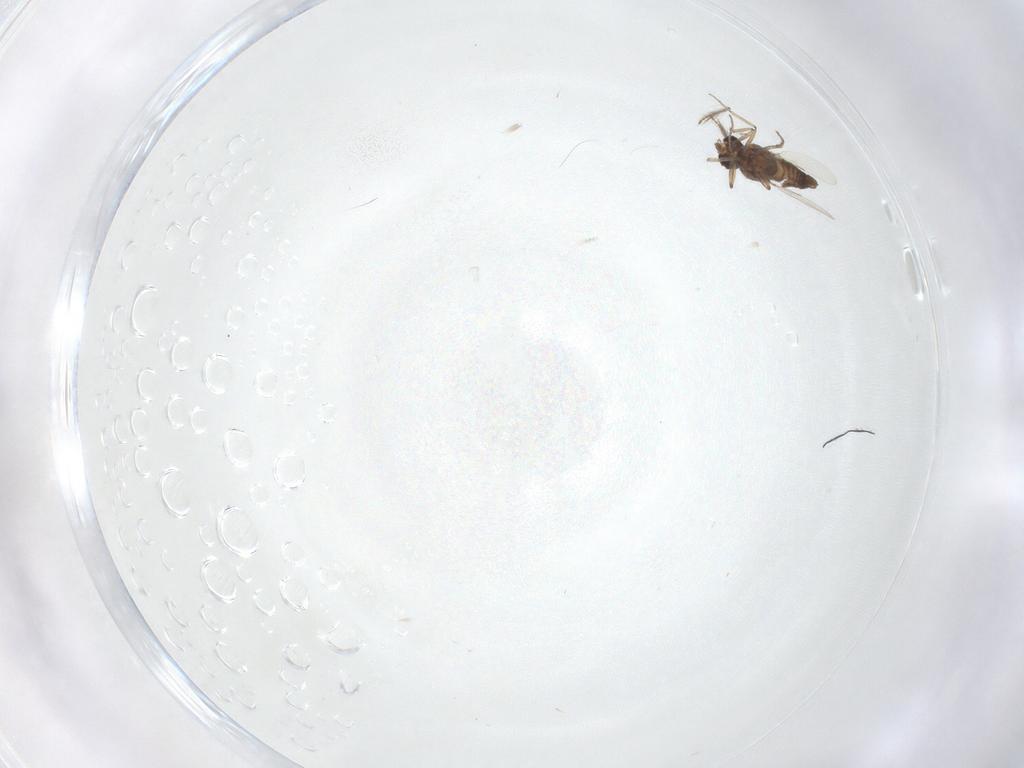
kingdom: Animalia
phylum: Arthropoda
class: Insecta
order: Diptera
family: Ceratopogonidae
